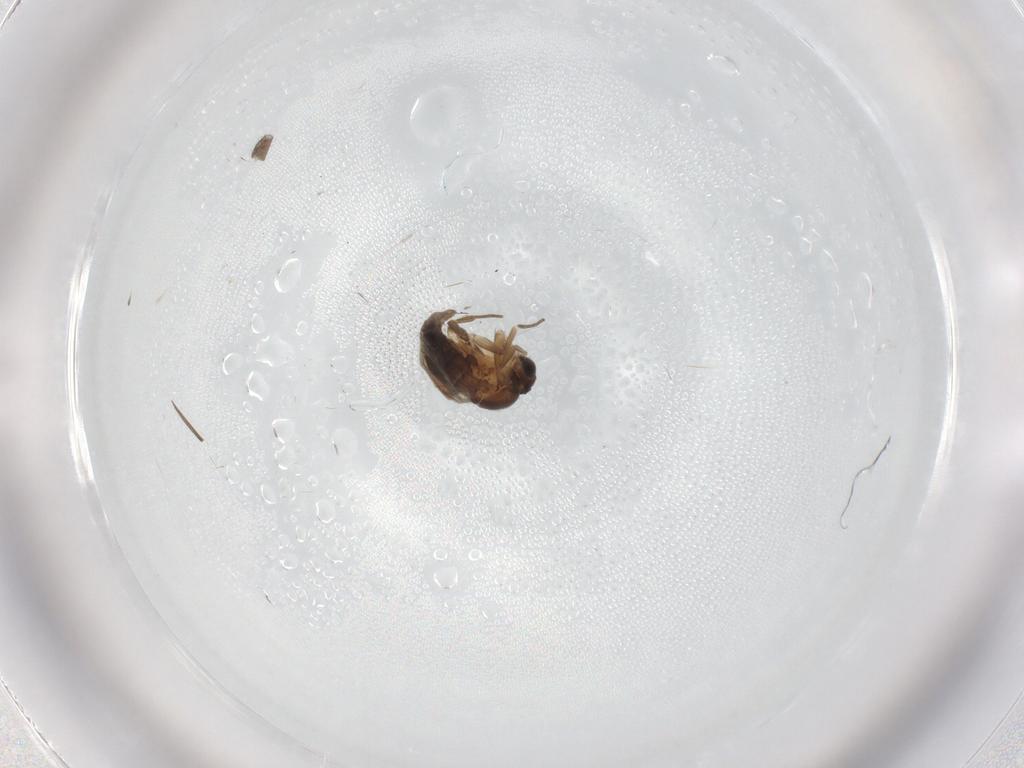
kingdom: Animalia
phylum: Arthropoda
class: Insecta
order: Diptera
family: Chironomidae
